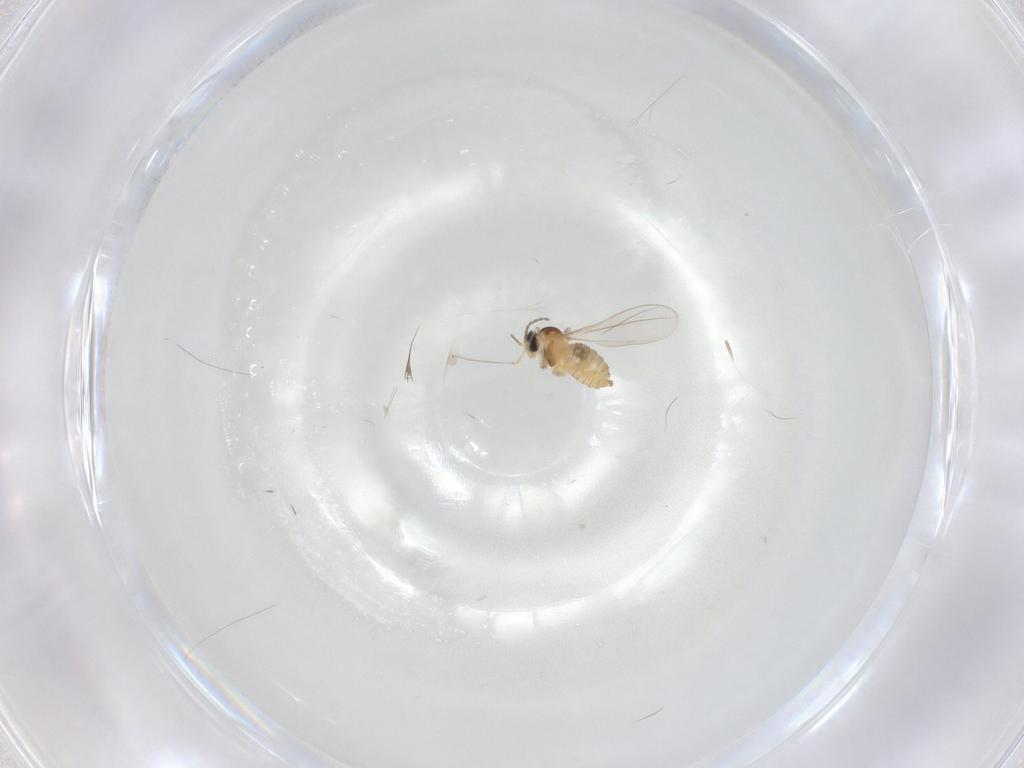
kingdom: Animalia
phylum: Arthropoda
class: Insecta
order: Diptera
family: Cecidomyiidae
